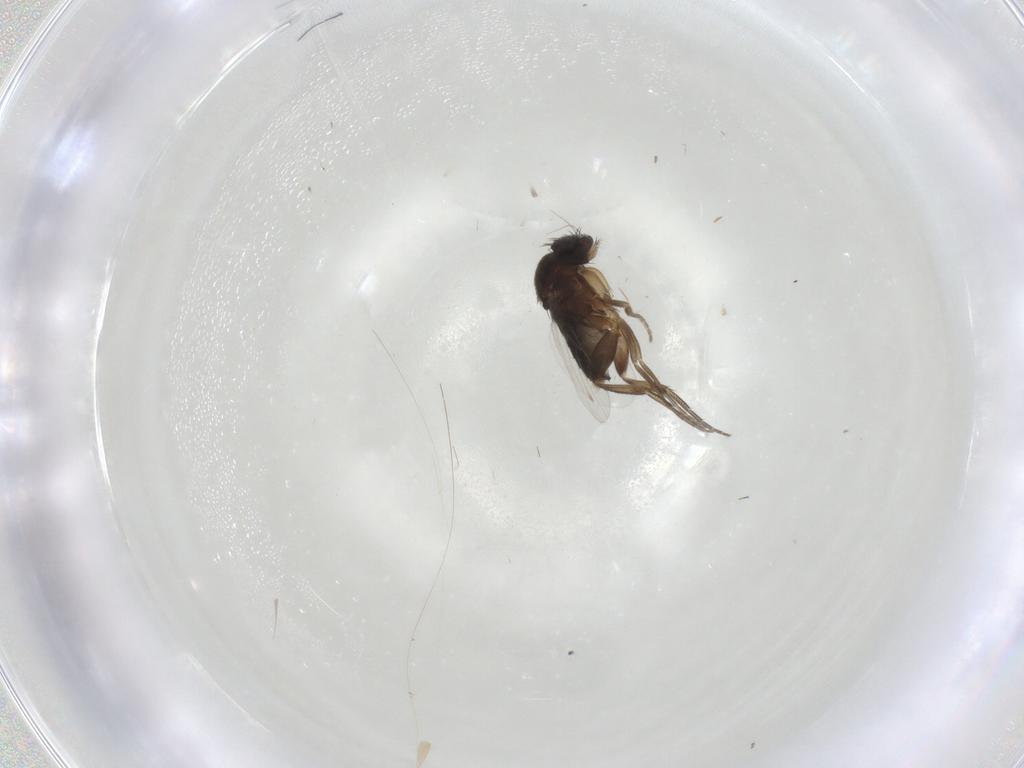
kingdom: Animalia
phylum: Arthropoda
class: Insecta
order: Diptera
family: Phoridae
